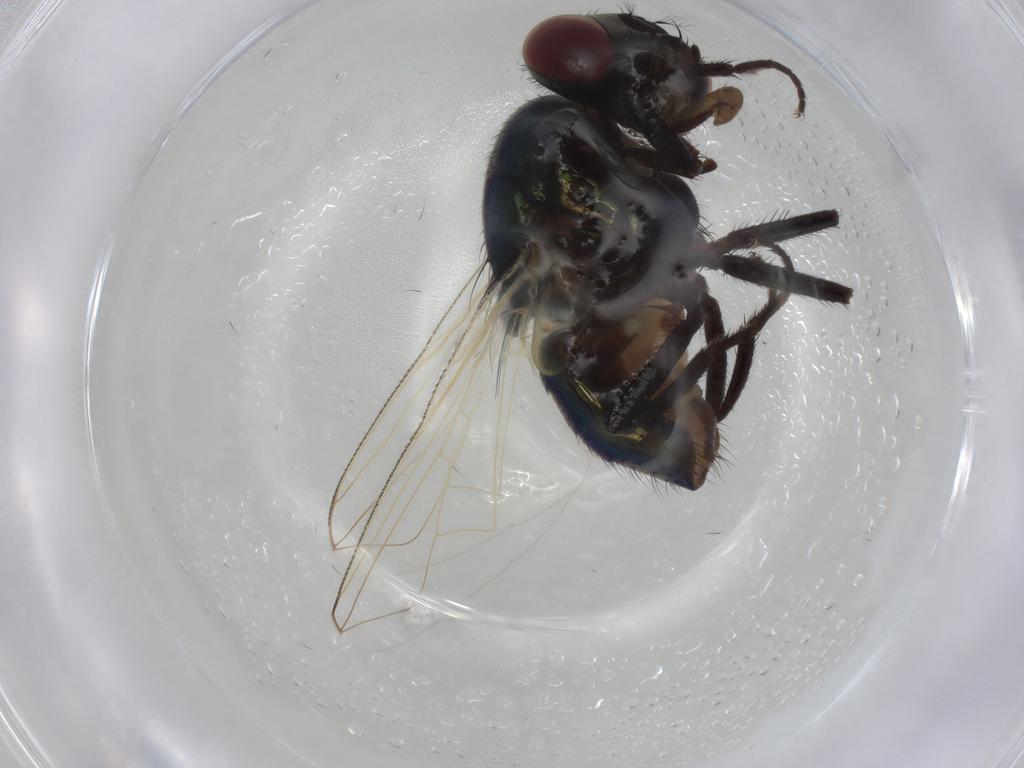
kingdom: Animalia
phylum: Arthropoda
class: Insecta
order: Diptera
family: Muscidae
